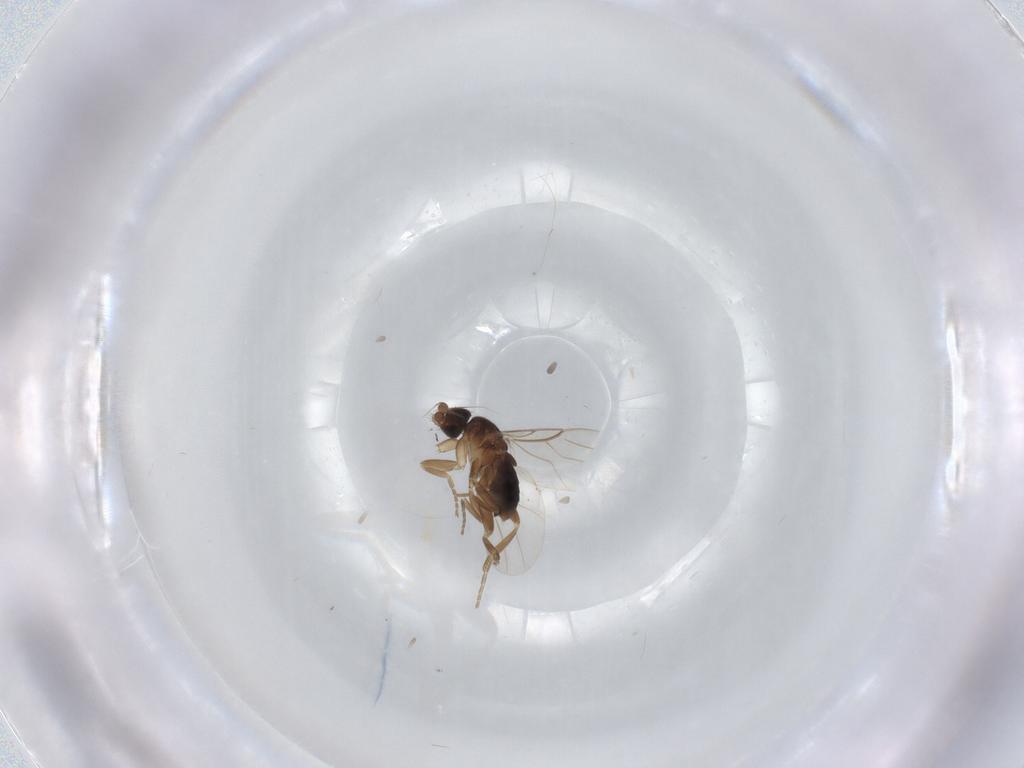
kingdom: Animalia
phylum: Arthropoda
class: Insecta
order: Diptera
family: Phoridae
